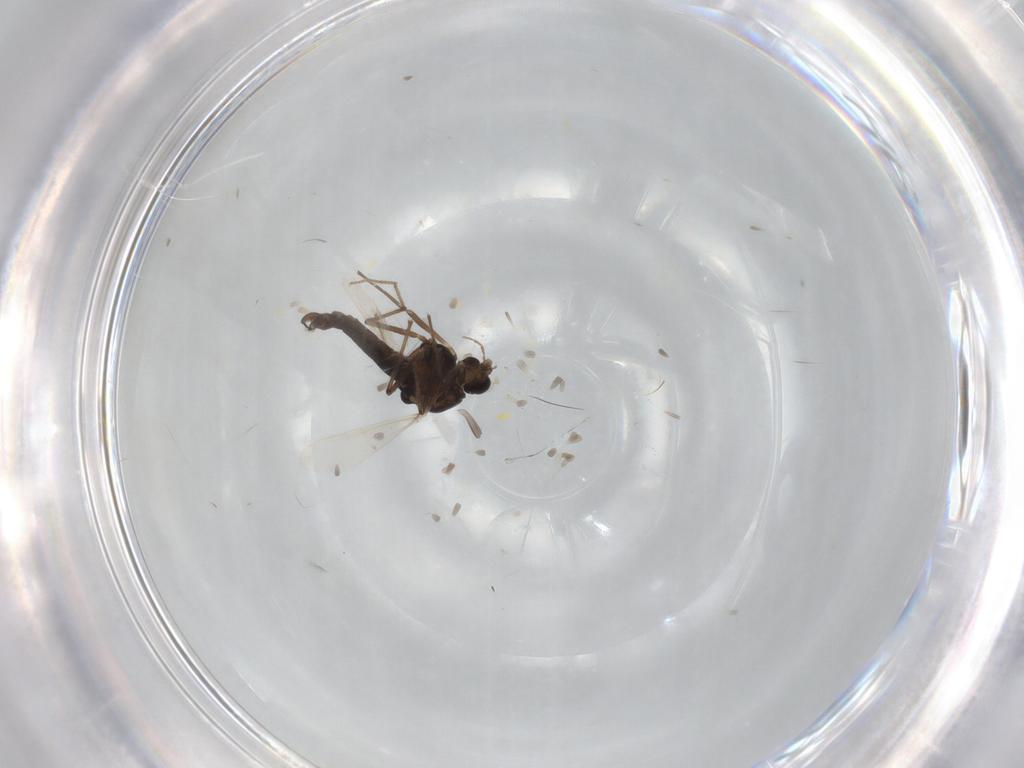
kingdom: Animalia
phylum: Arthropoda
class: Insecta
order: Diptera
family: Chironomidae
